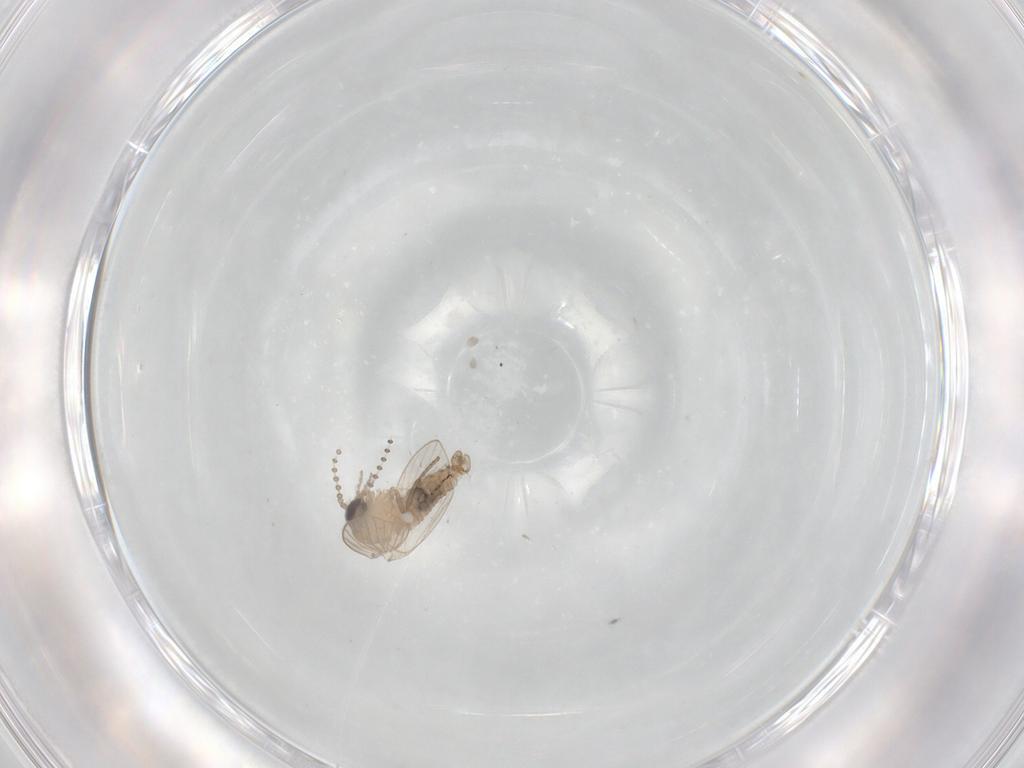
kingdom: Animalia
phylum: Arthropoda
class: Insecta
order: Diptera
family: Psychodidae
